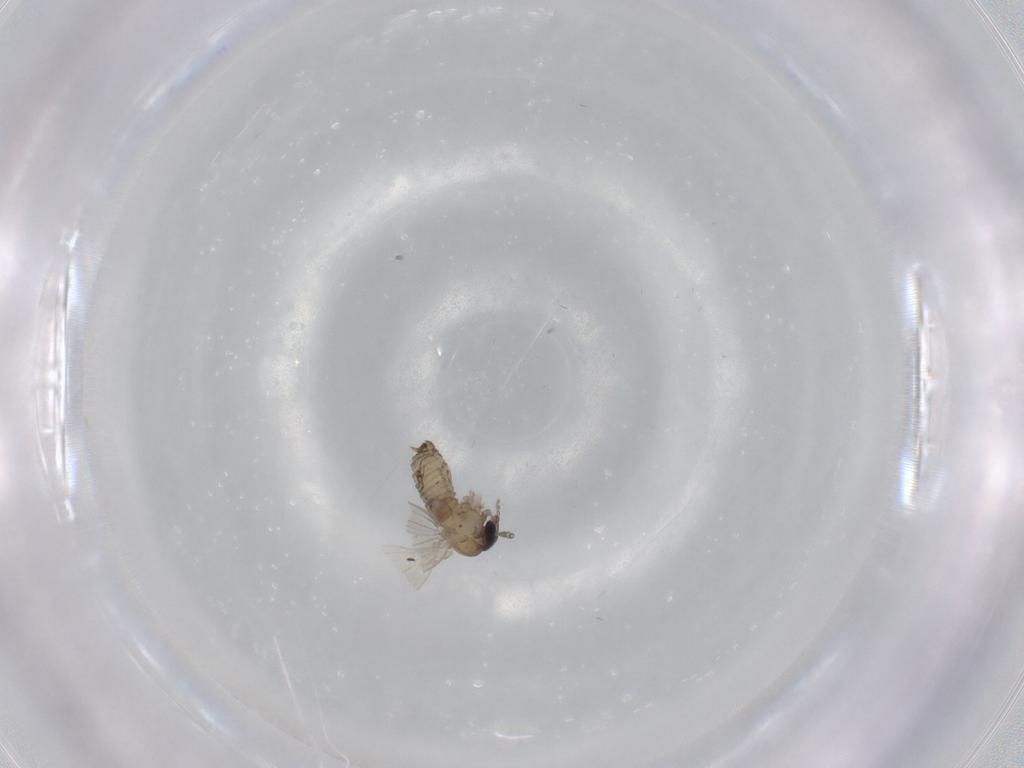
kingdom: Animalia
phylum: Arthropoda
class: Insecta
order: Diptera
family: Psychodidae
